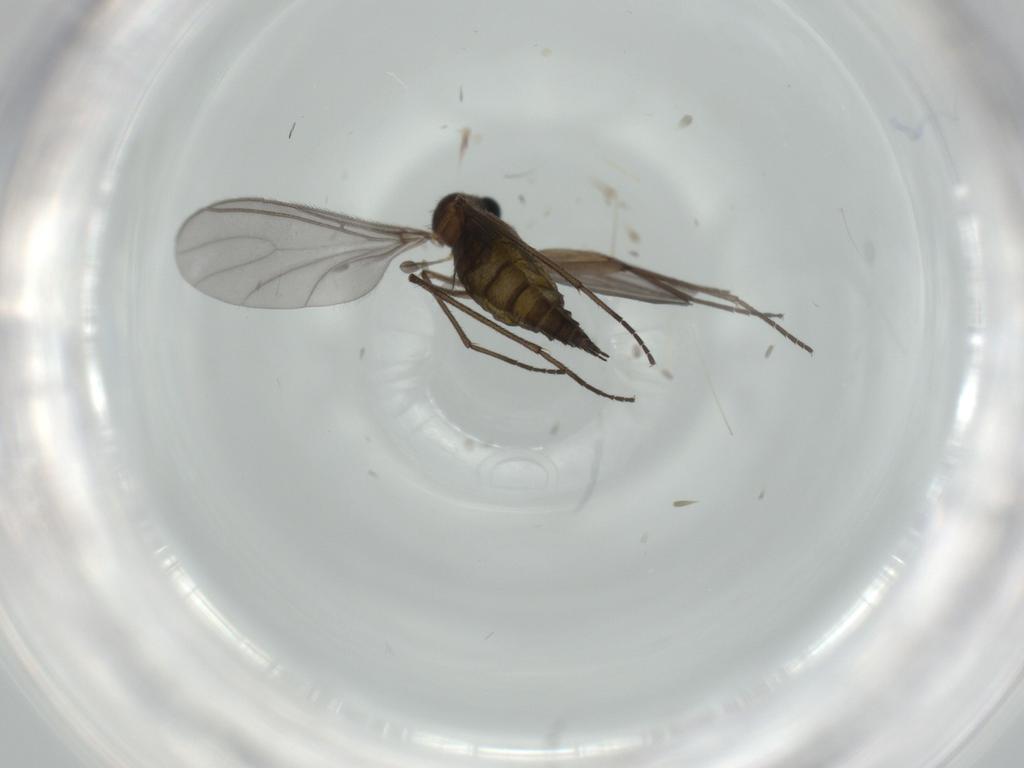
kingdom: Animalia
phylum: Arthropoda
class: Insecta
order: Diptera
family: Sciaridae
